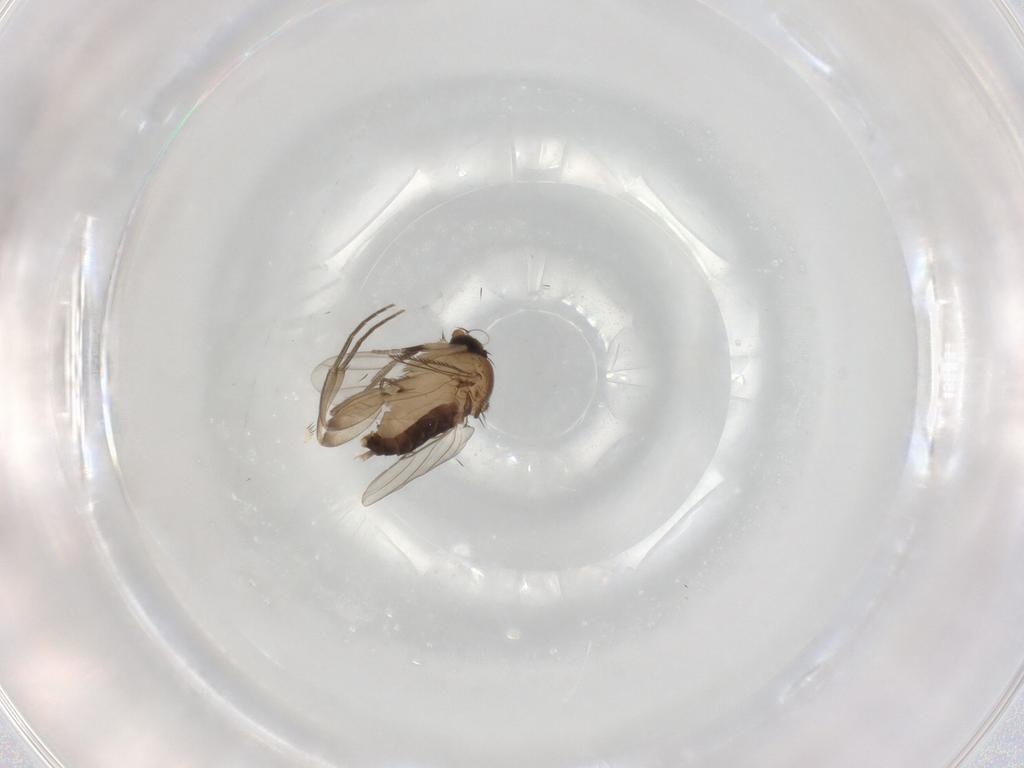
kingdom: Animalia
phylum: Arthropoda
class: Insecta
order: Diptera
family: Phoridae
